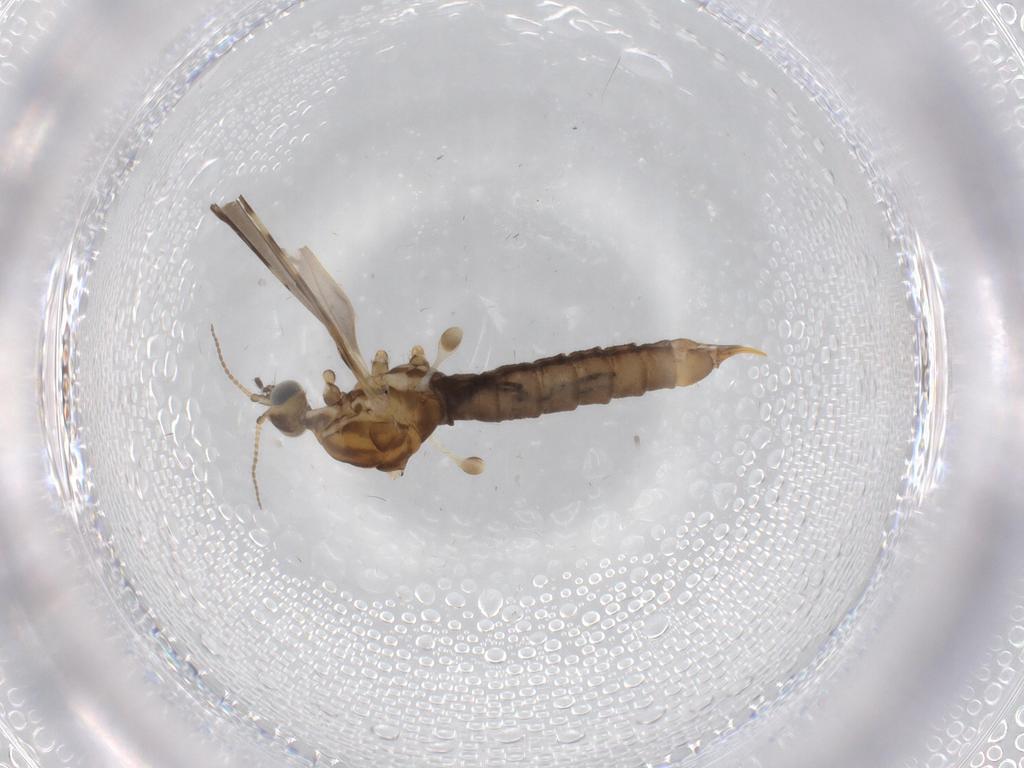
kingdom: Animalia
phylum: Arthropoda
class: Insecta
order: Diptera
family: Phoridae
